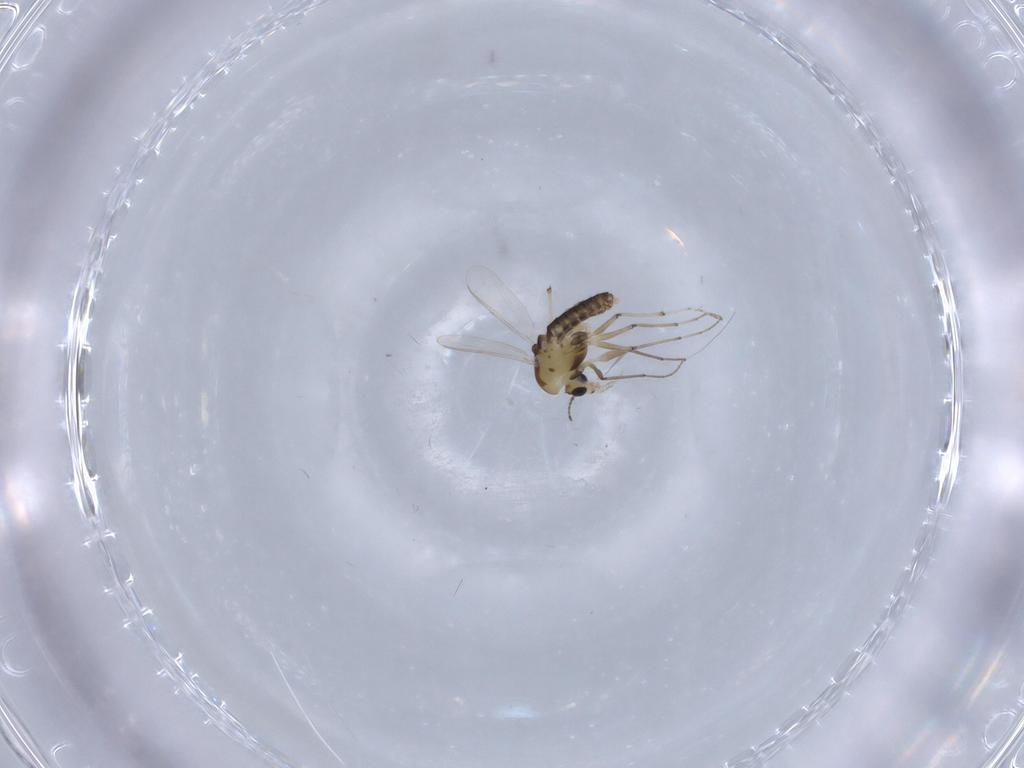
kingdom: Animalia
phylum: Arthropoda
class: Insecta
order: Diptera
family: Chironomidae
